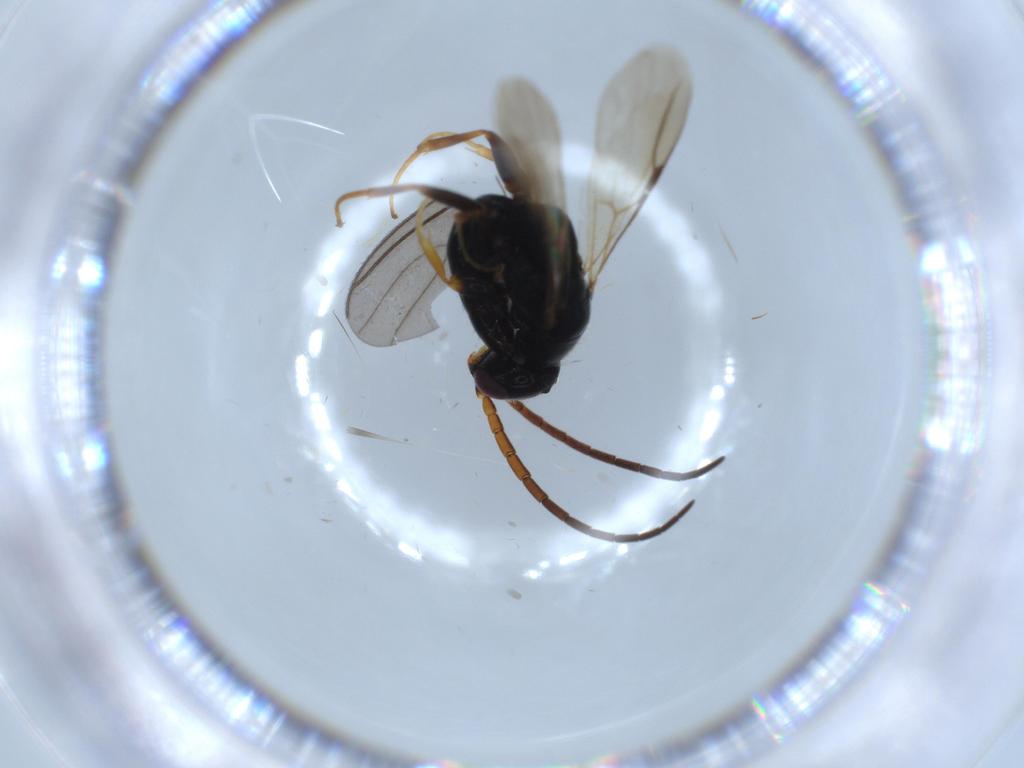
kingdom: Animalia
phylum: Arthropoda
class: Insecta
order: Hymenoptera
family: Bethylidae
